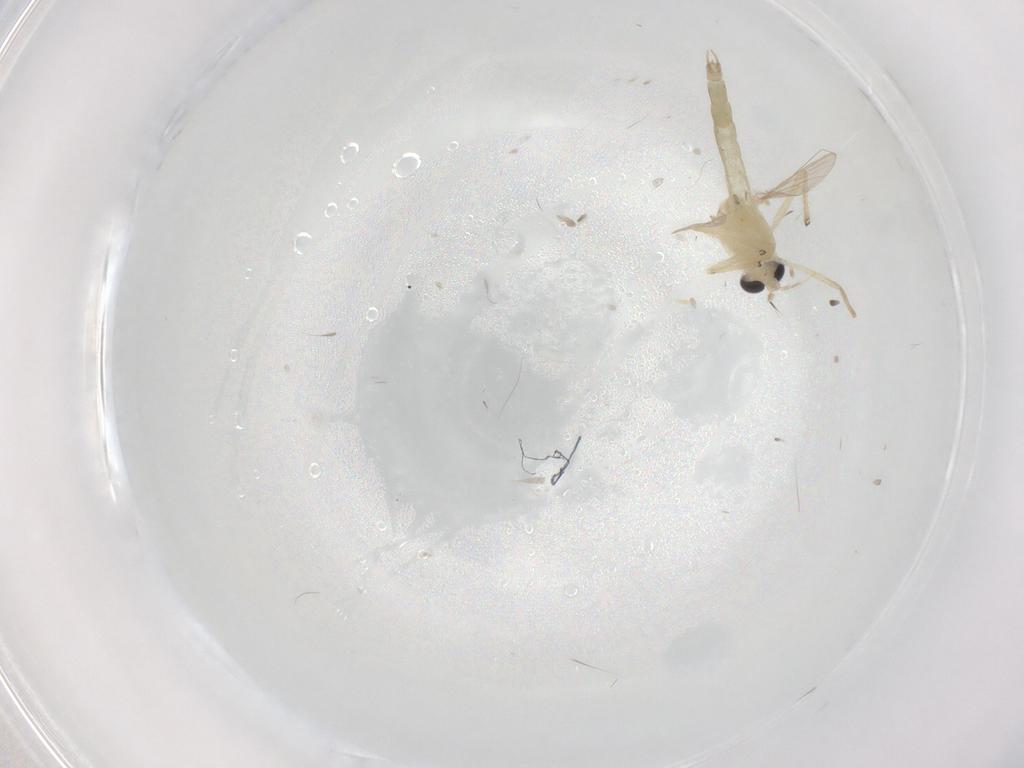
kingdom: Animalia
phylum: Arthropoda
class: Insecta
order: Diptera
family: Chironomidae
